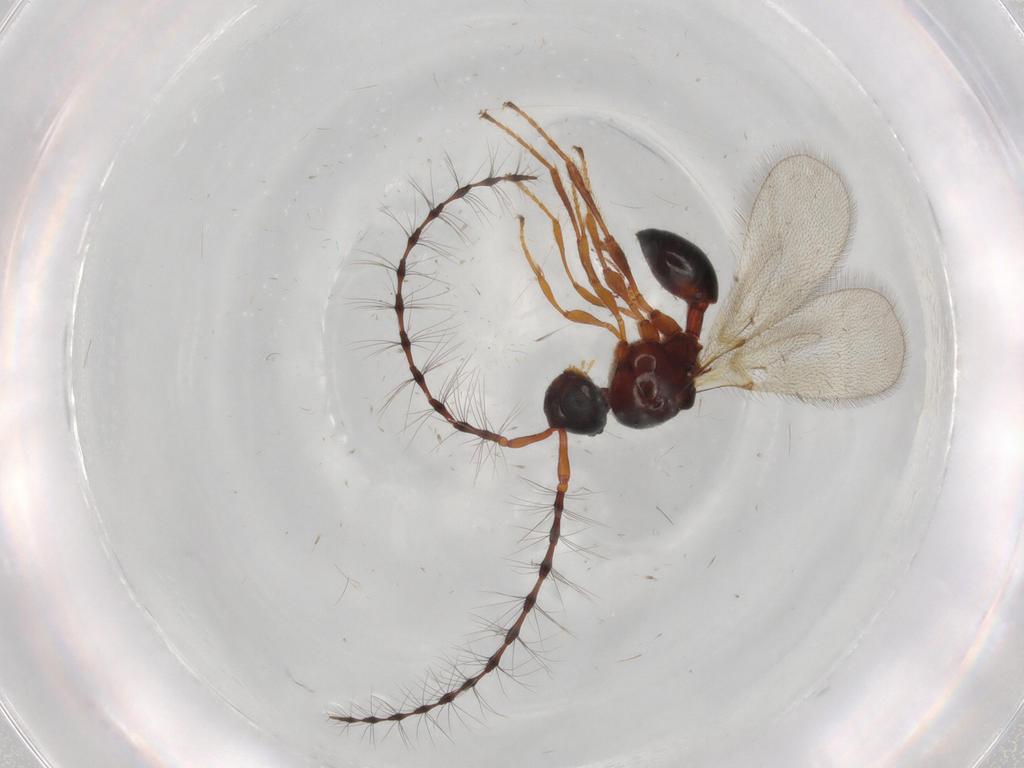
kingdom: Animalia
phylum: Arthropoda
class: Insecta
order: Hymenoptera
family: Diapriidae
